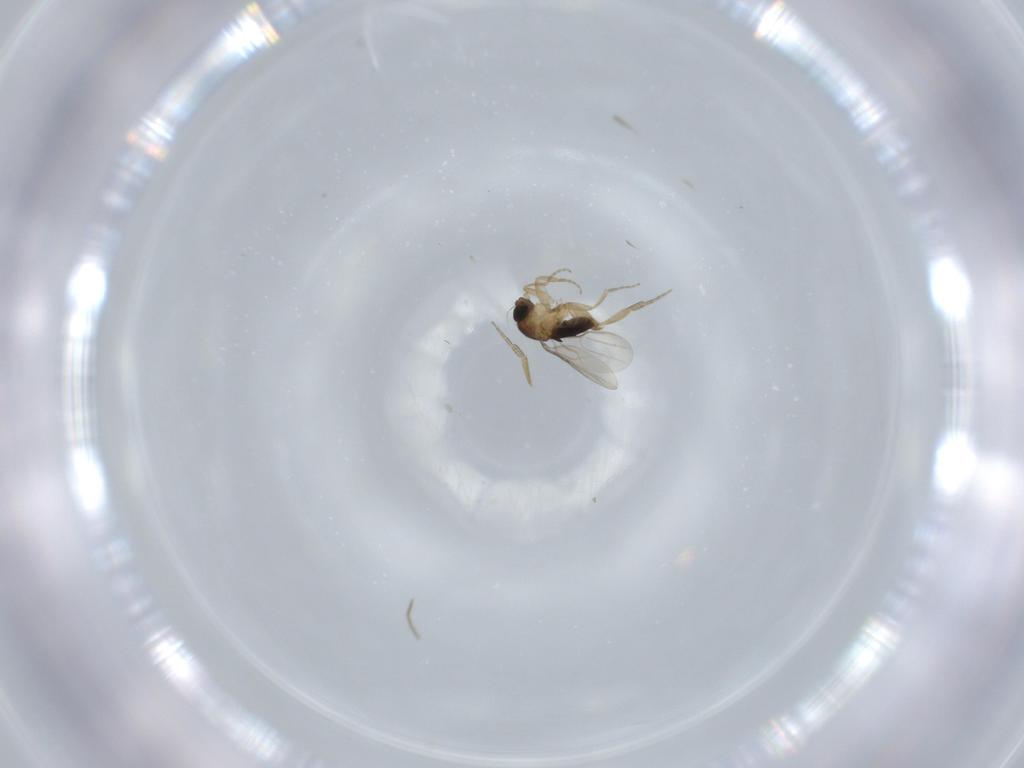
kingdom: Animalia
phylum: Arthropoda
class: Insecta
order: Diptera
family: Phoridae
